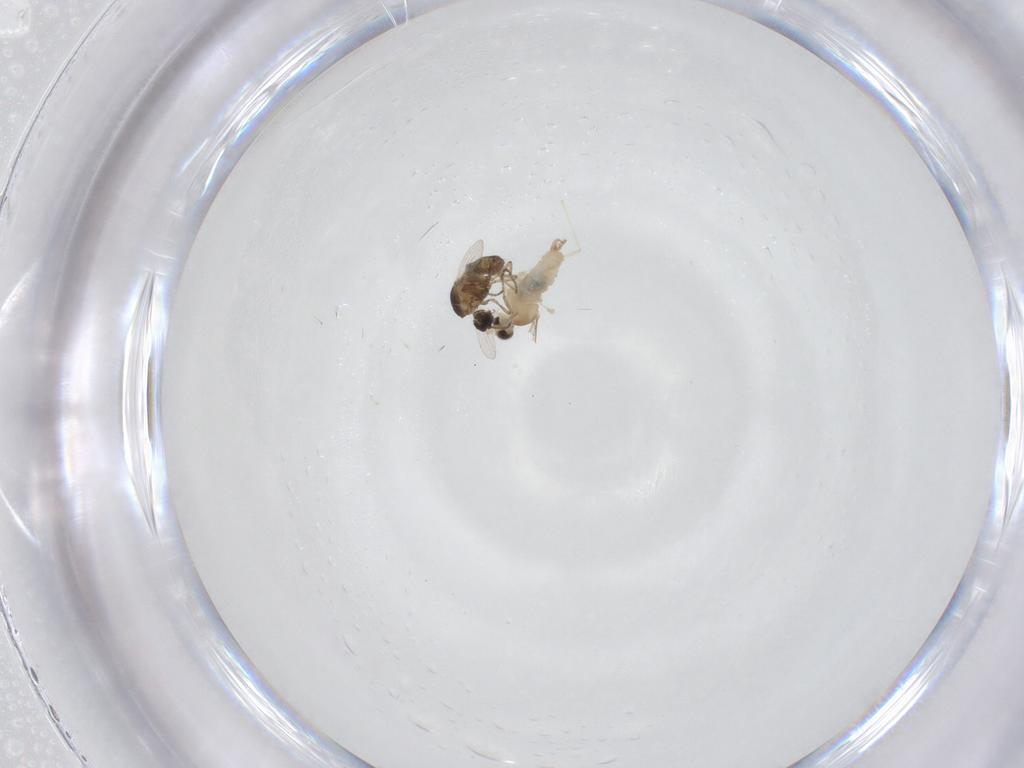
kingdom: Animalia
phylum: Arthropoda
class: Insecta
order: Diptera
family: Cecidomyiidae
